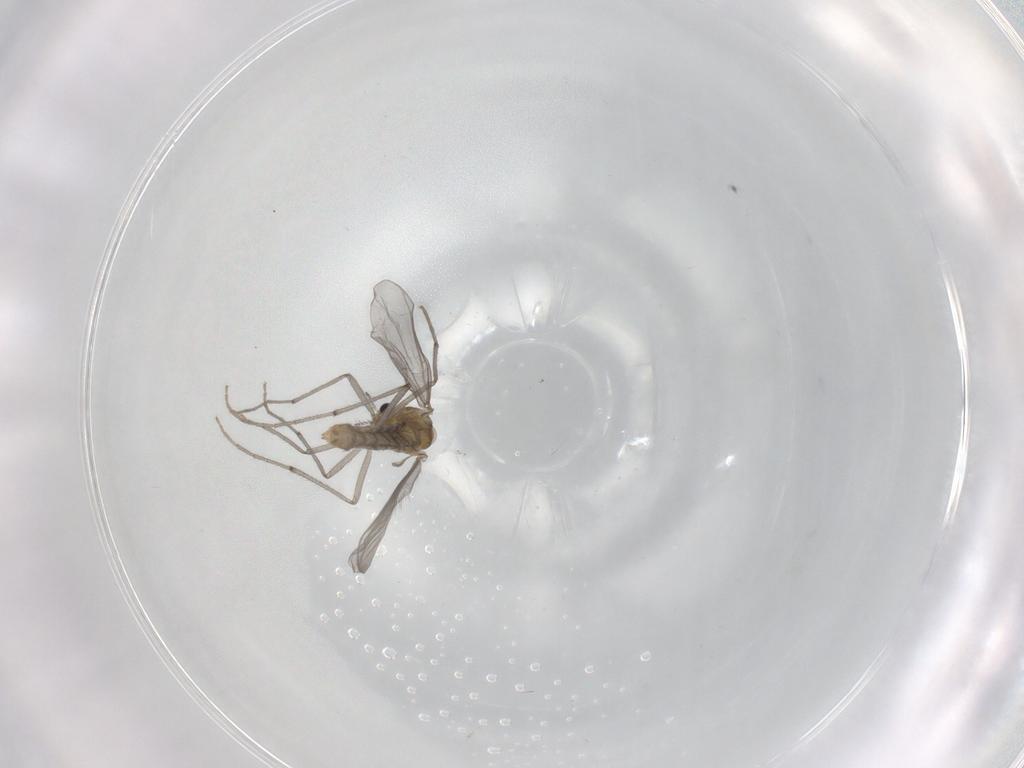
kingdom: Animalia
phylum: Arthropoda
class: Insecta
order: Diptera
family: Chironomidae
